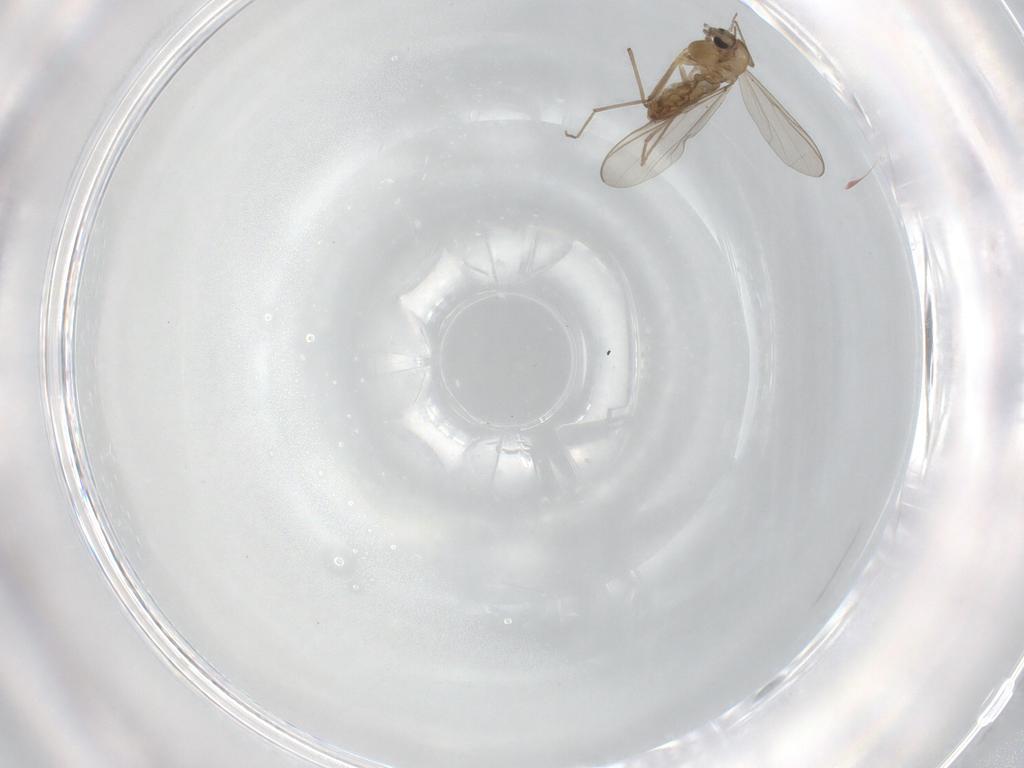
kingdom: Animalia
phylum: Arthropoda
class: Insecta
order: Diptera
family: Chironomidae
